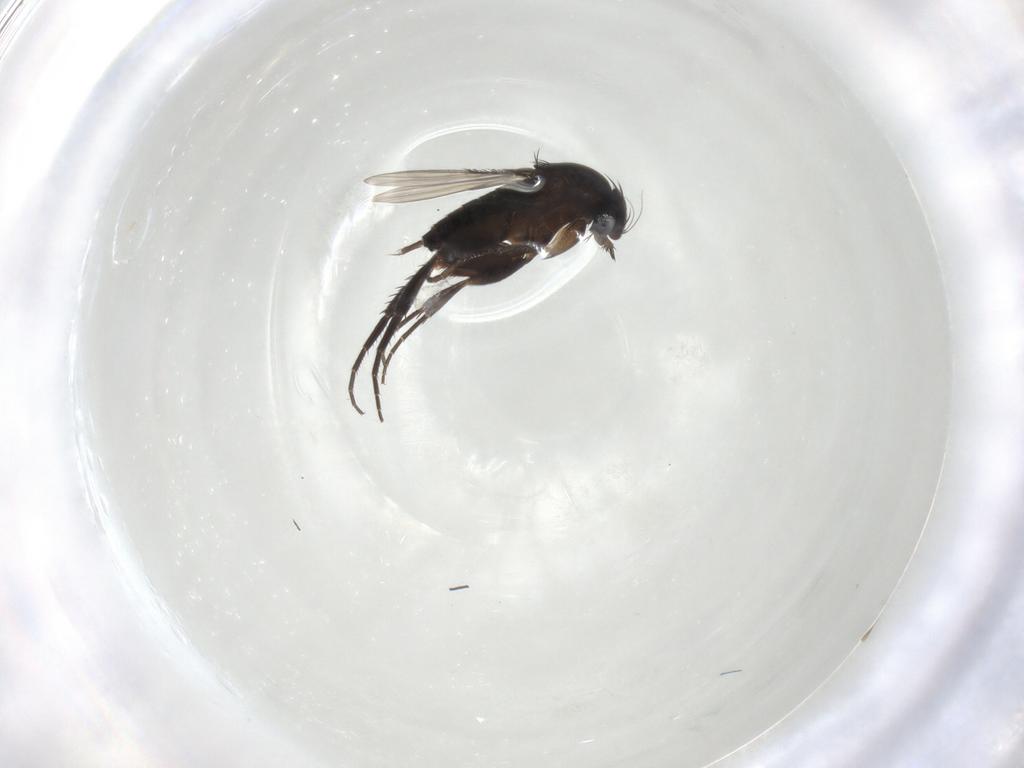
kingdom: Animalia
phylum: Arthropoda
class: Insecta
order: Diptera
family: Phoridae
